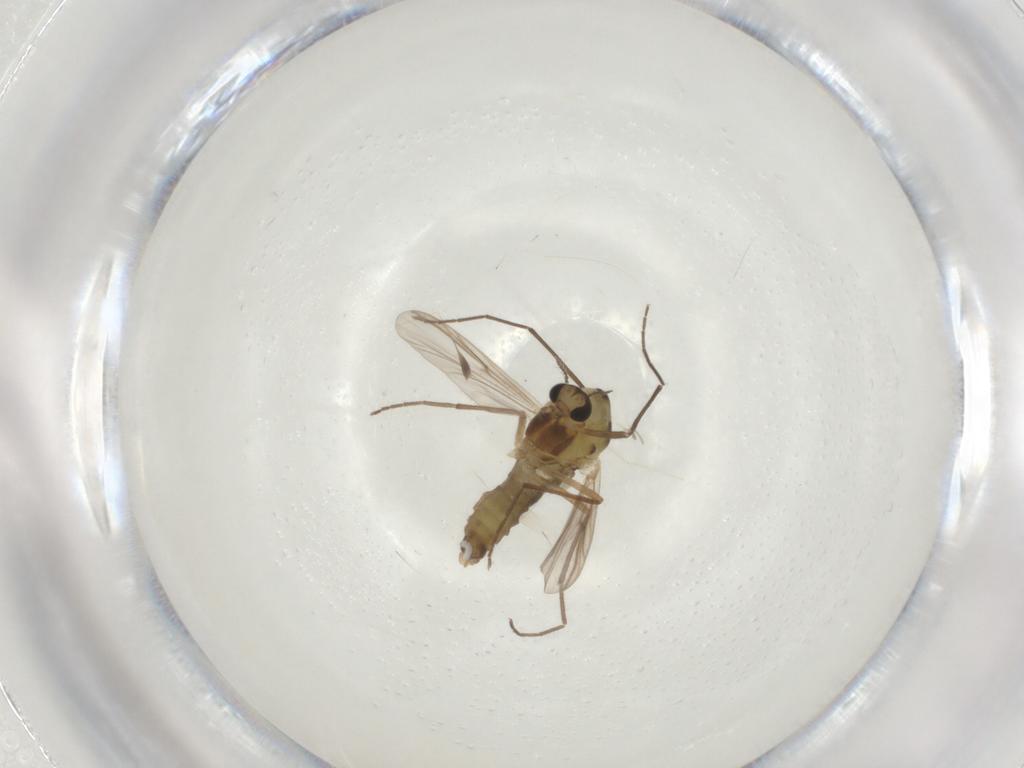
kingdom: Animalia
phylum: Arthropoda
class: Insecta
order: Diptera
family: Chironomidae
